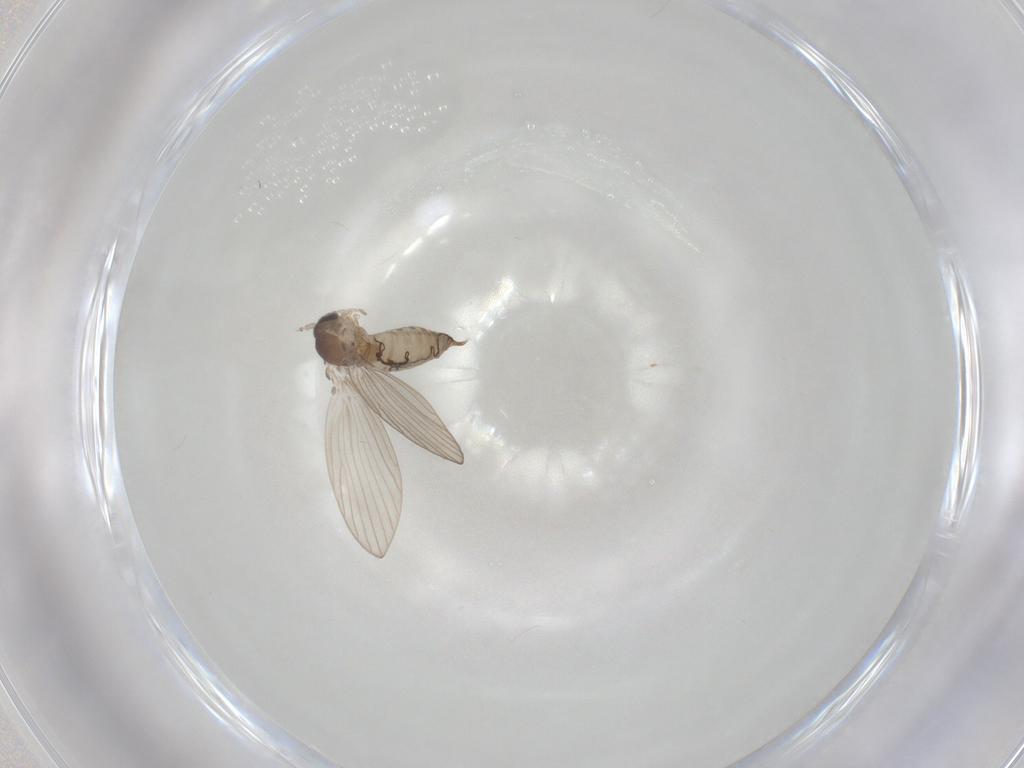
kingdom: Animalia
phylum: Arthropoda
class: Insecta
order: Diptera
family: Psychodidae
